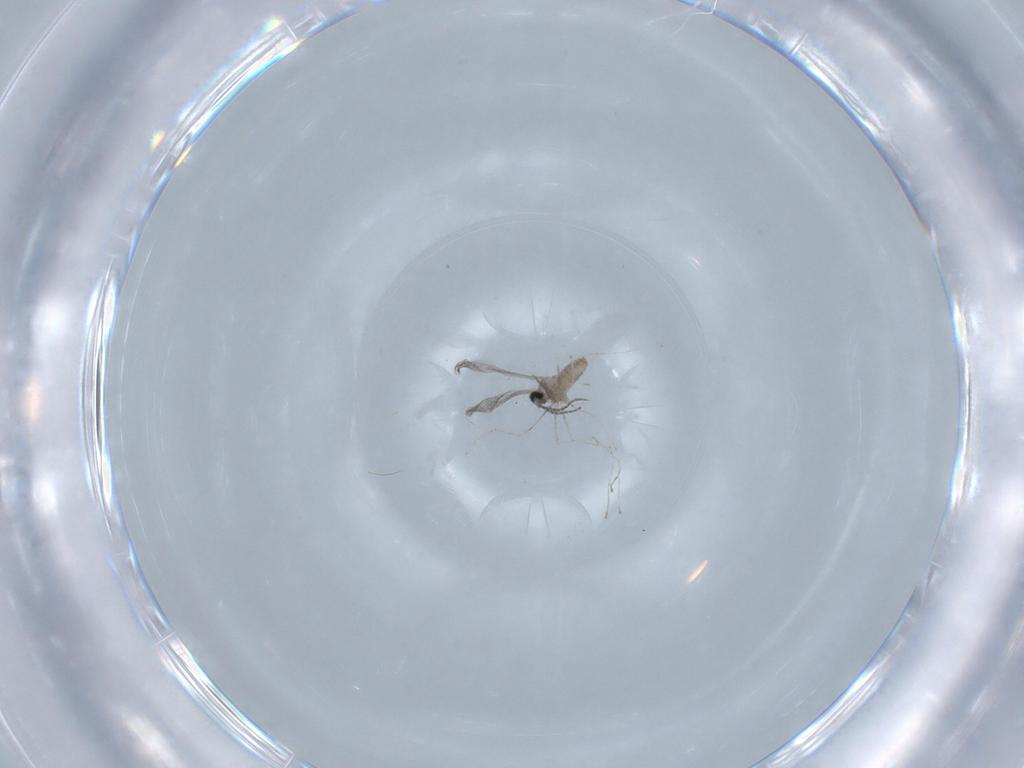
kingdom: Animalia
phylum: Arthropoda
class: Insecta
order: Diptera
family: Cecidomyiidae
